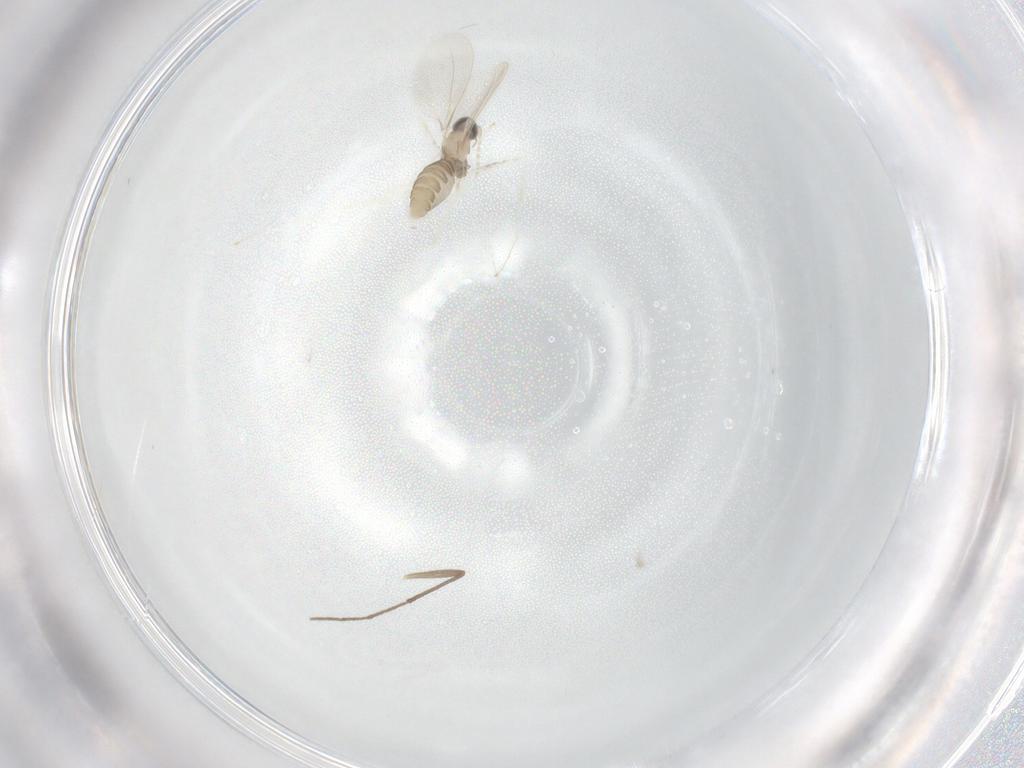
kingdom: Animalia
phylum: Arthropoda
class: Insecta
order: Diptera
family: Cecidomyiidae
